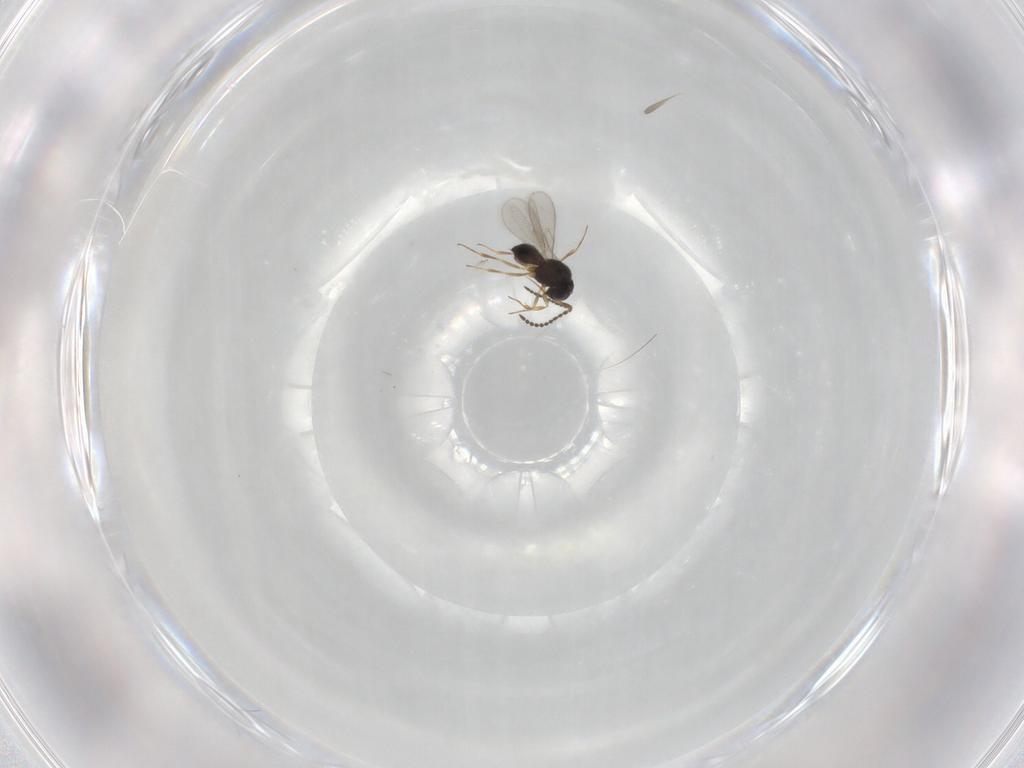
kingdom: Animalia
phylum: Arthropoda
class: Insecta
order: Hymenoptera
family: Scelionidae
